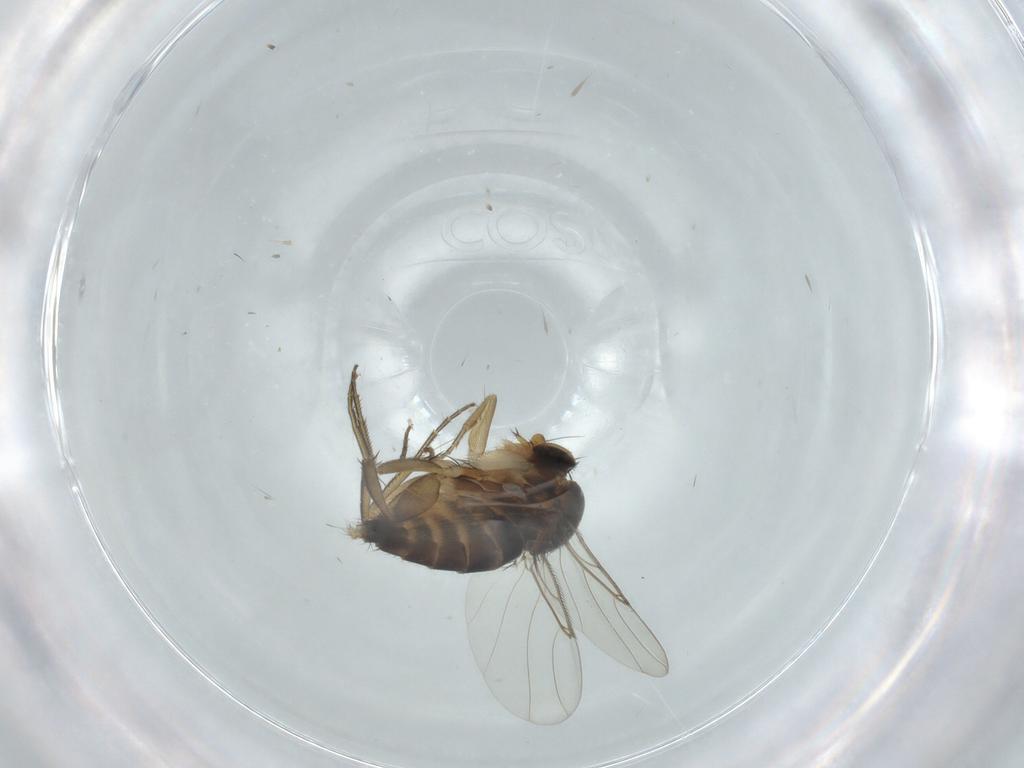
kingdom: Animalia
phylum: Arthropoda
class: Insecta
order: Diptera
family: Phoridae
